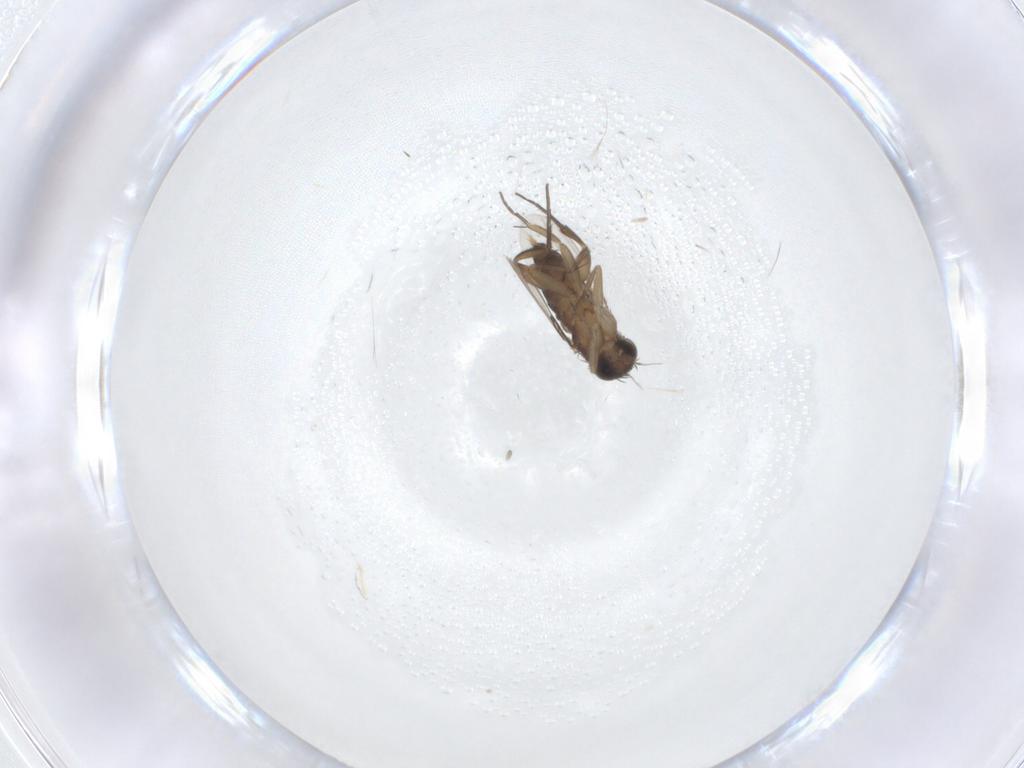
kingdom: Animalia
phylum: Arthropoda
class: Insecta
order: Diptera
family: Phoridae
